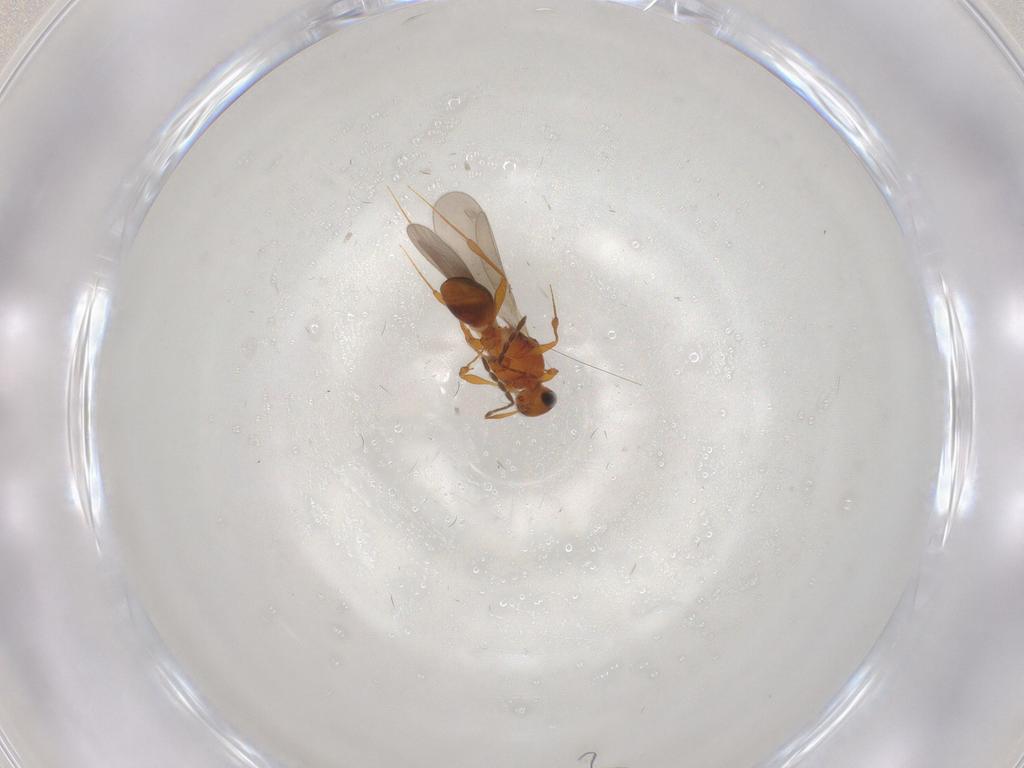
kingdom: Animalia
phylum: Arthropoda
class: Insecta
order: Hymenoptera
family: Platygastridae
